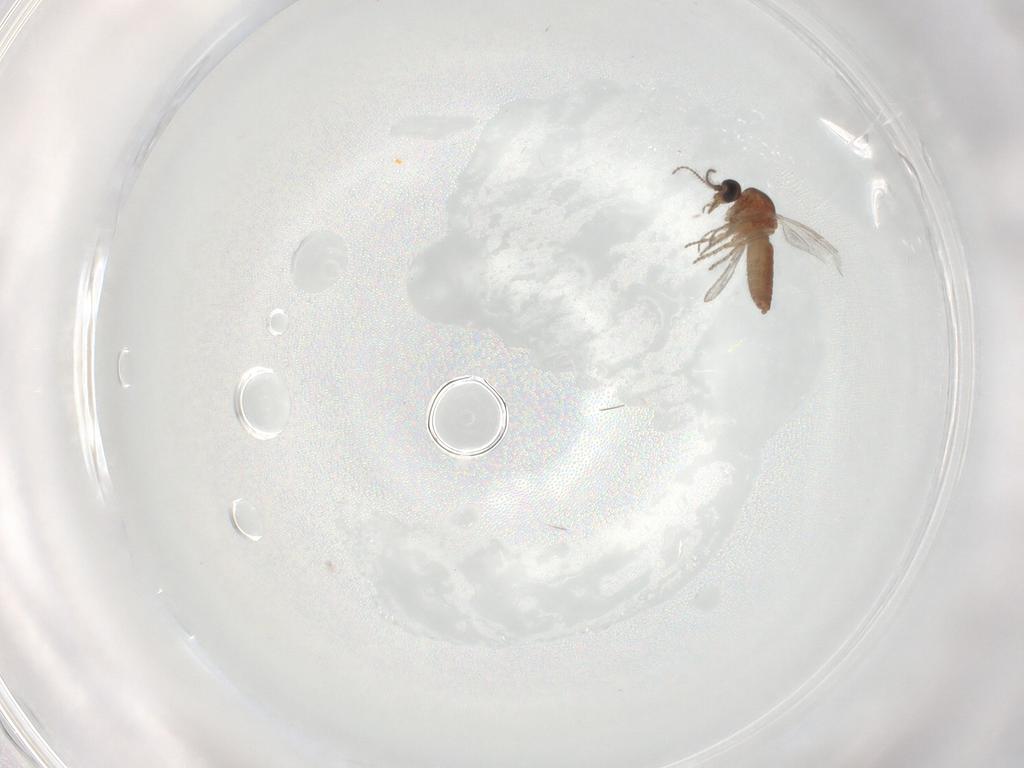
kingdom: Animalia
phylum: Arthropoda
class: Insecta
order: Diptera
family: Ceratopogonidae
